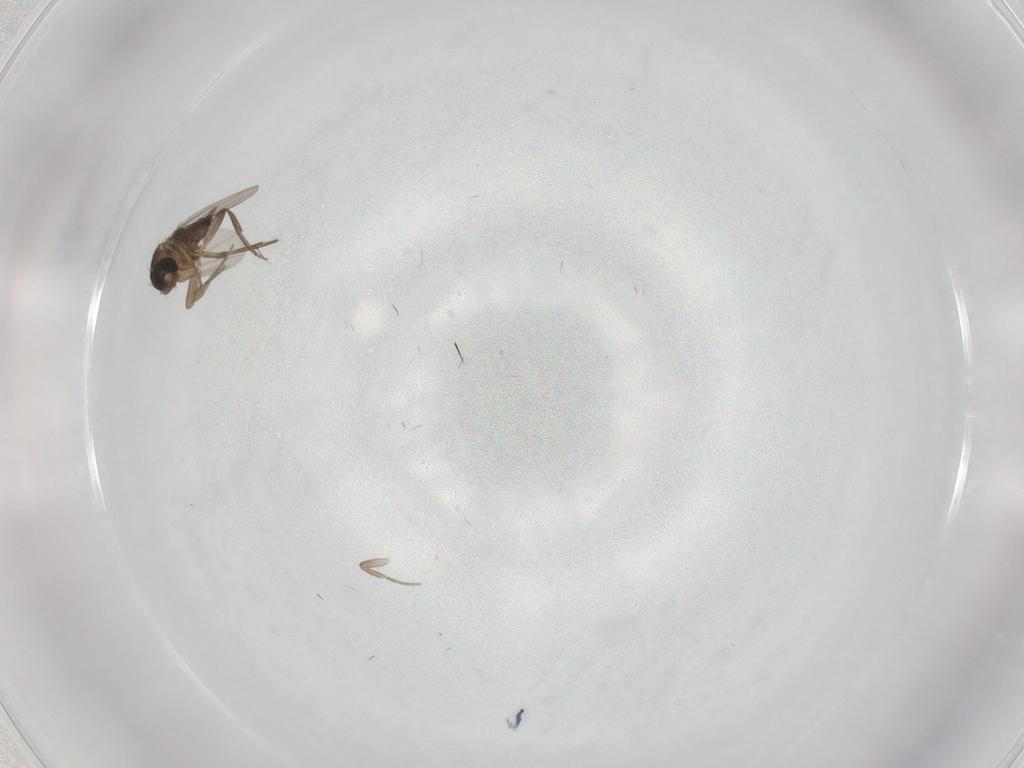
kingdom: Animalia
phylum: Arthropoda
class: Insecta
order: Diptera
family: Phoridae
